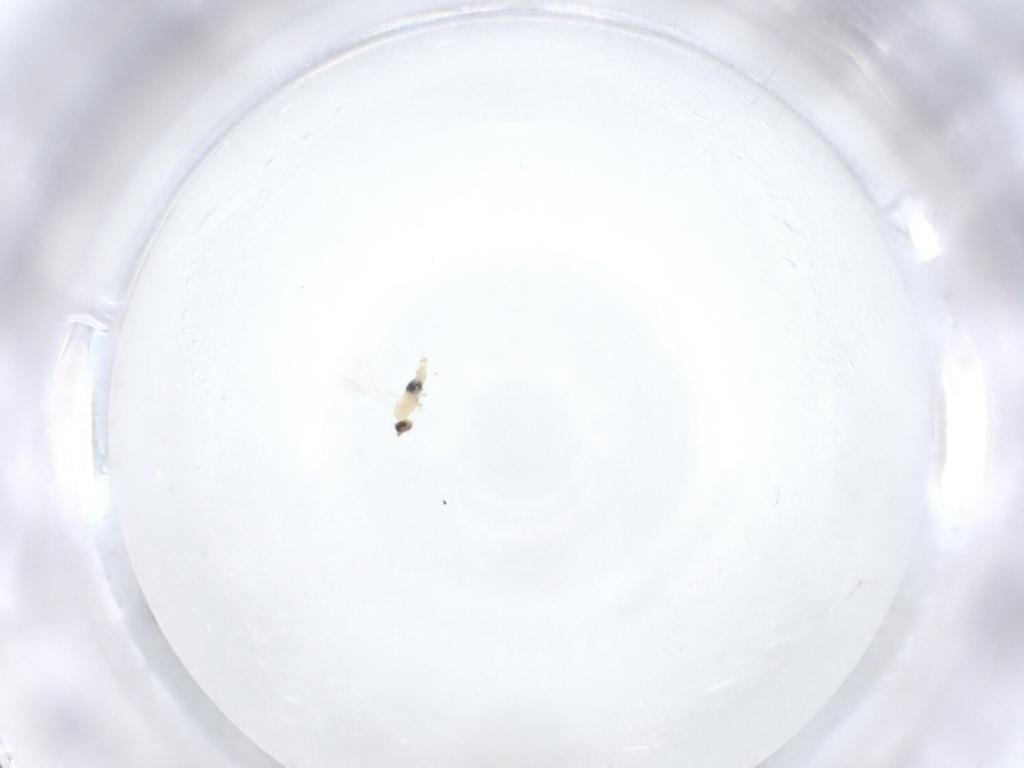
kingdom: Animalia
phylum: Arthropoda
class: Insecta
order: Diptera
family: Cecidomyiidae
